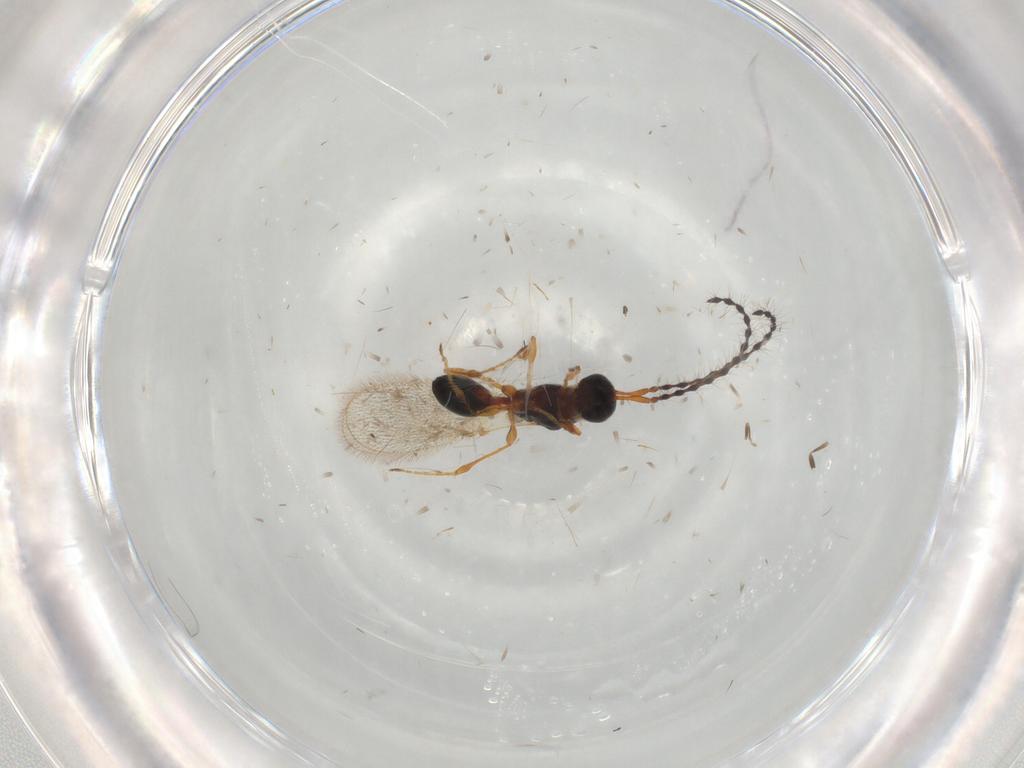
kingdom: Animalia
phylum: Arthropoda
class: Insecta
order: Hymenoptera
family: Diapriidae
